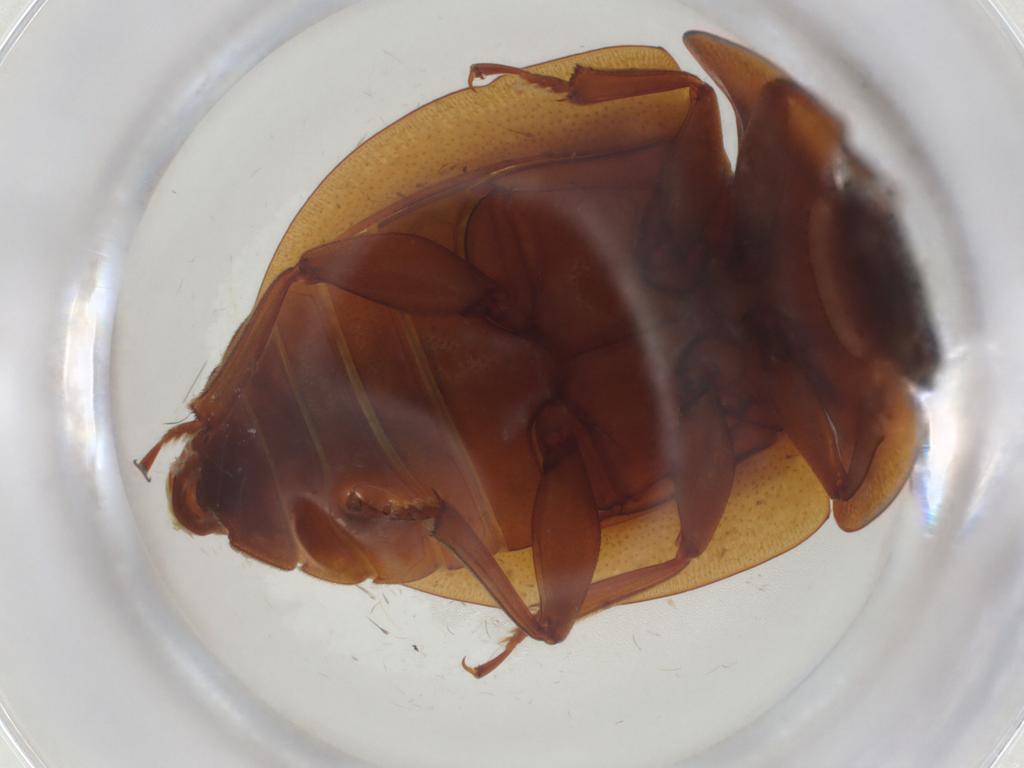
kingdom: Animalia
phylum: Arthropoda
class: Insecta
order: Coleoptera
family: Nitidulidae
